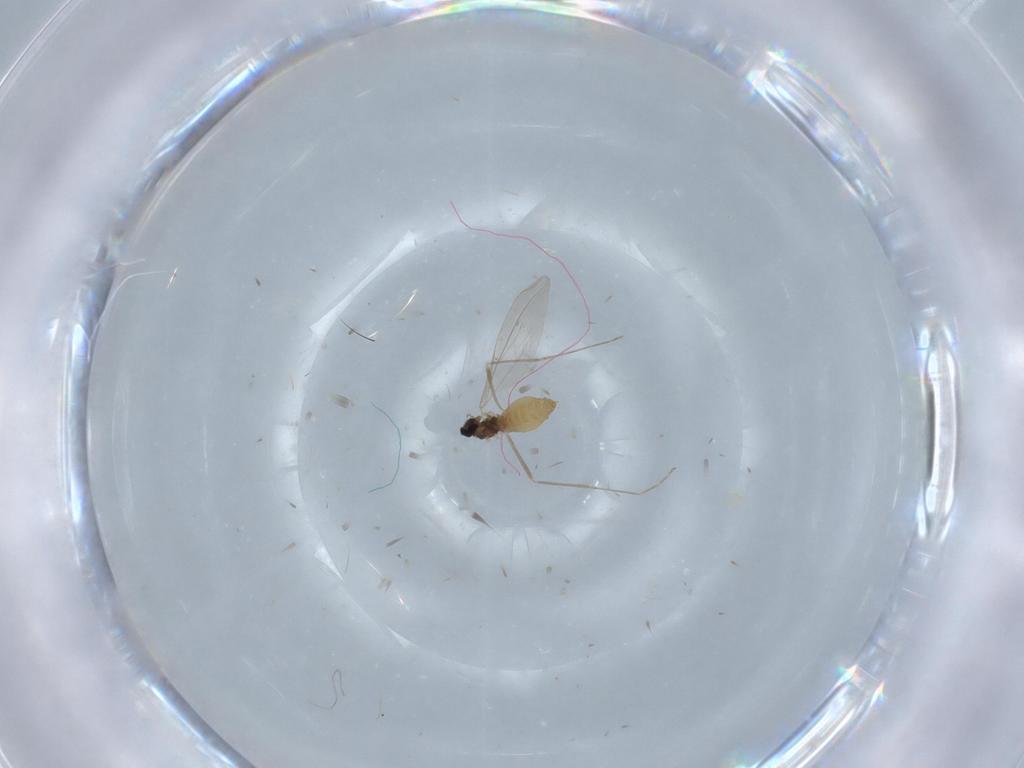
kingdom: Animalia
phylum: Arthropoda
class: Insecta
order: Diptera
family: Cecidomyiidae
